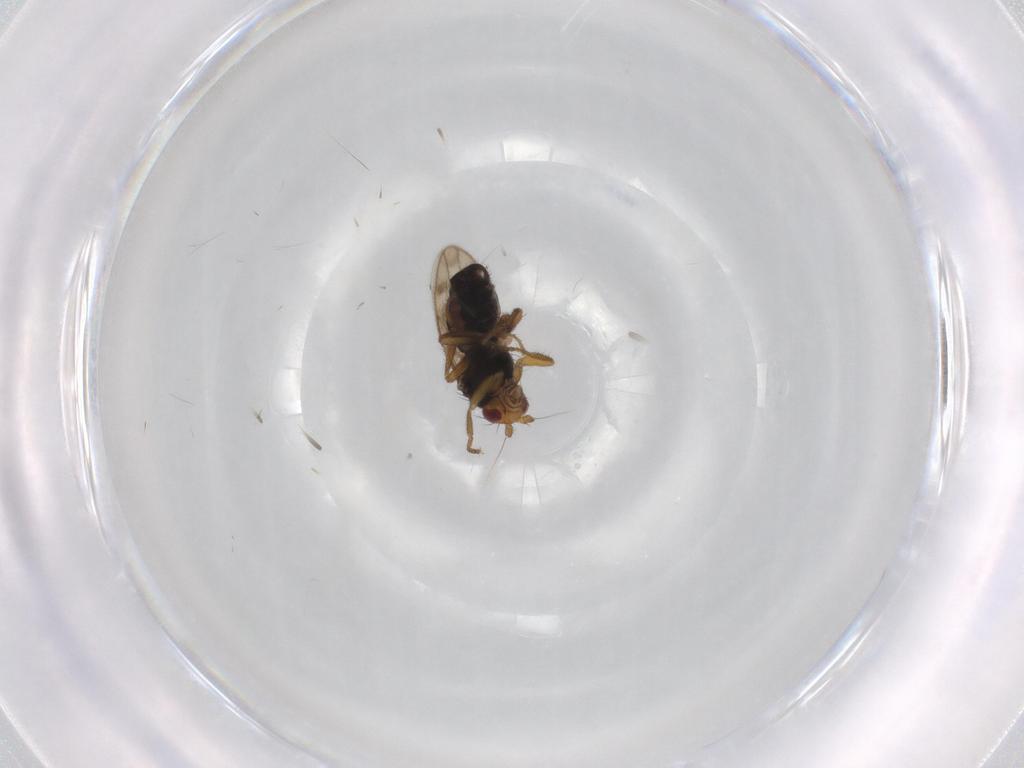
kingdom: Animalia
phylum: Arthropoda
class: Insecta
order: Diptera
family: Sphaeroceridae
